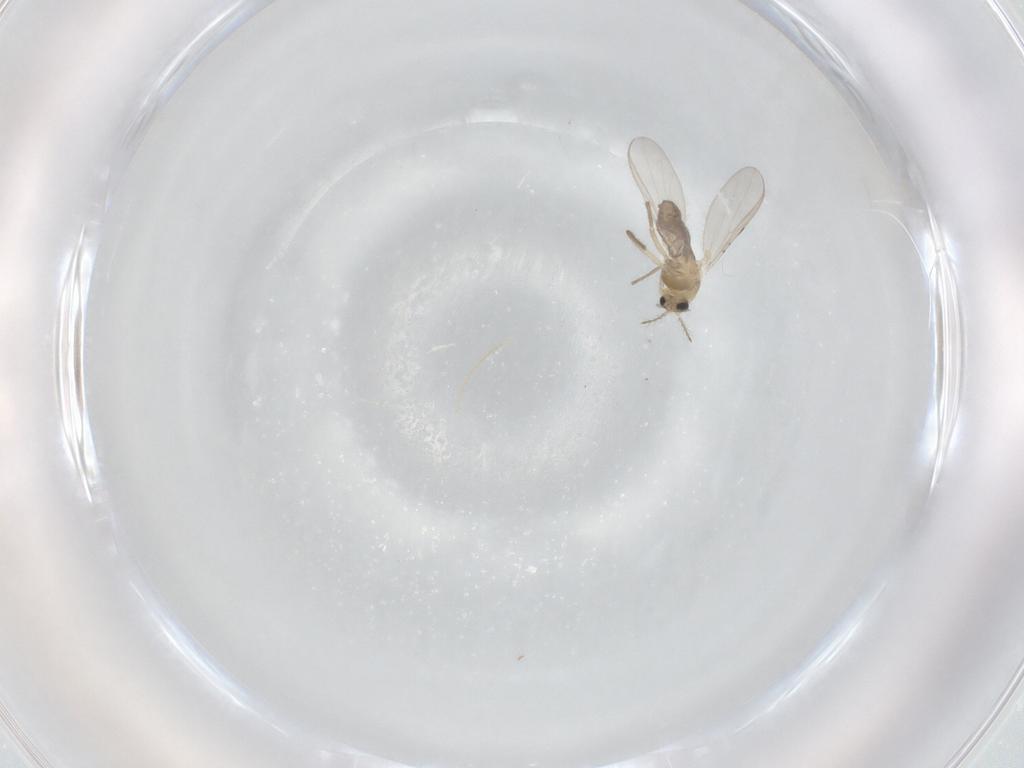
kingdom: Animalia
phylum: Arthropoda
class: Insecta
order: Diptera
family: Chironomidae
